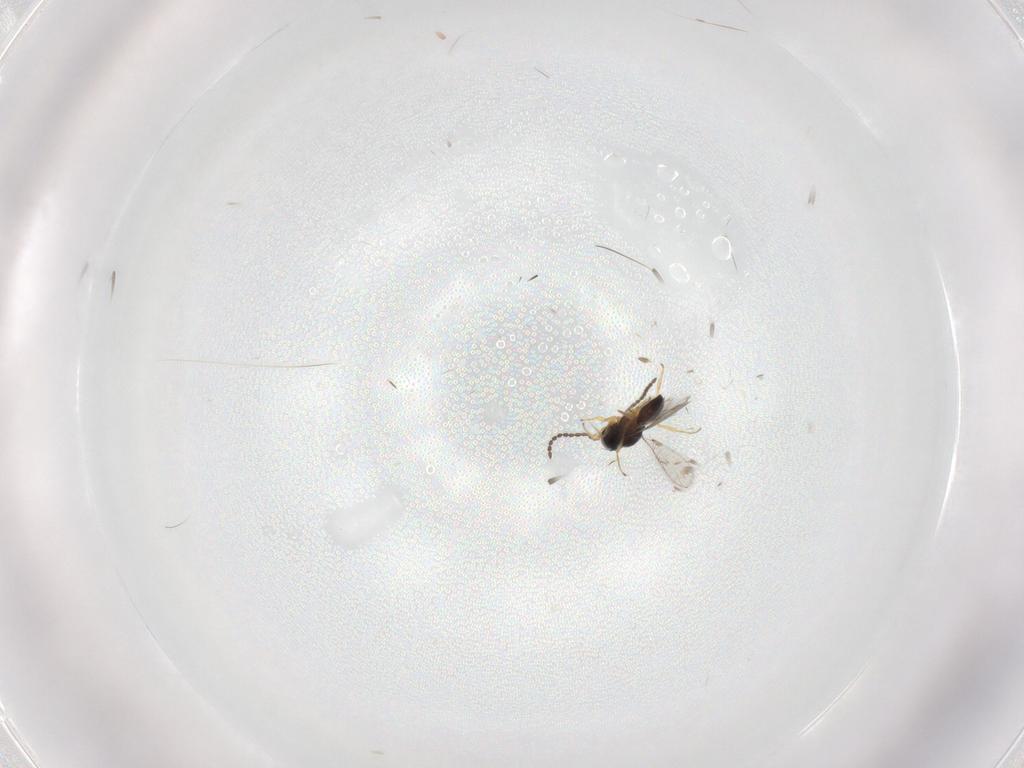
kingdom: Animalia
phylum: Arthropoda
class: Insecta
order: Hymenoptera
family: Scelionidae
